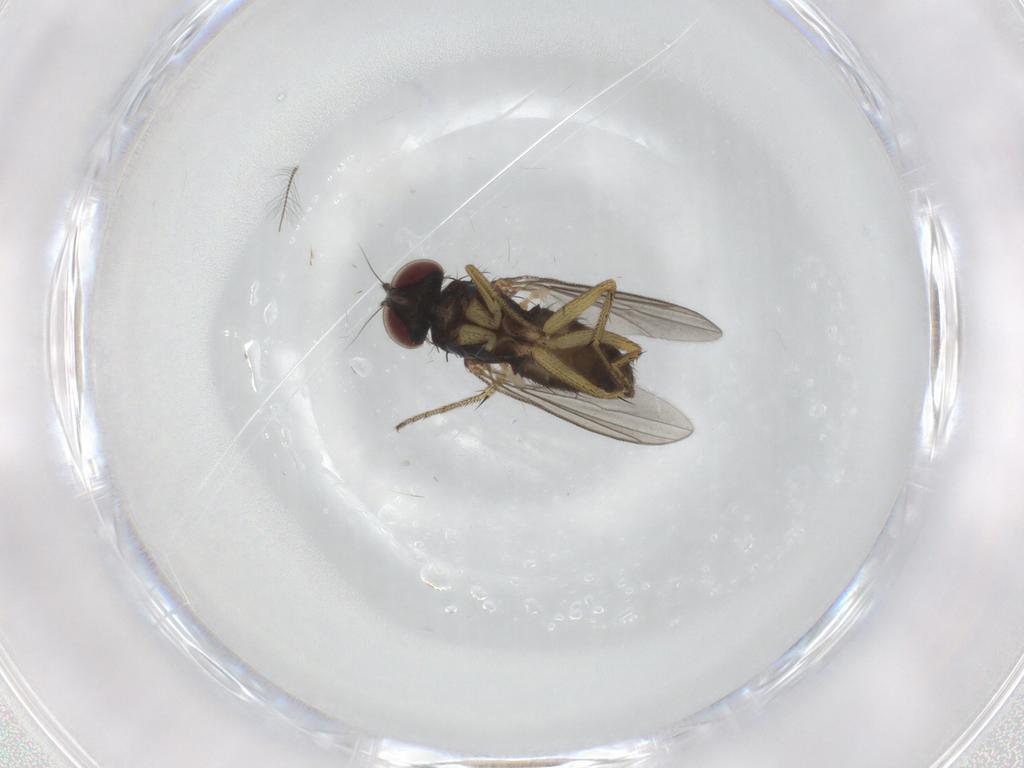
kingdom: Animalia
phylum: Arthropoda
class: Insecta
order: Diptera
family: Dolichopodidae
